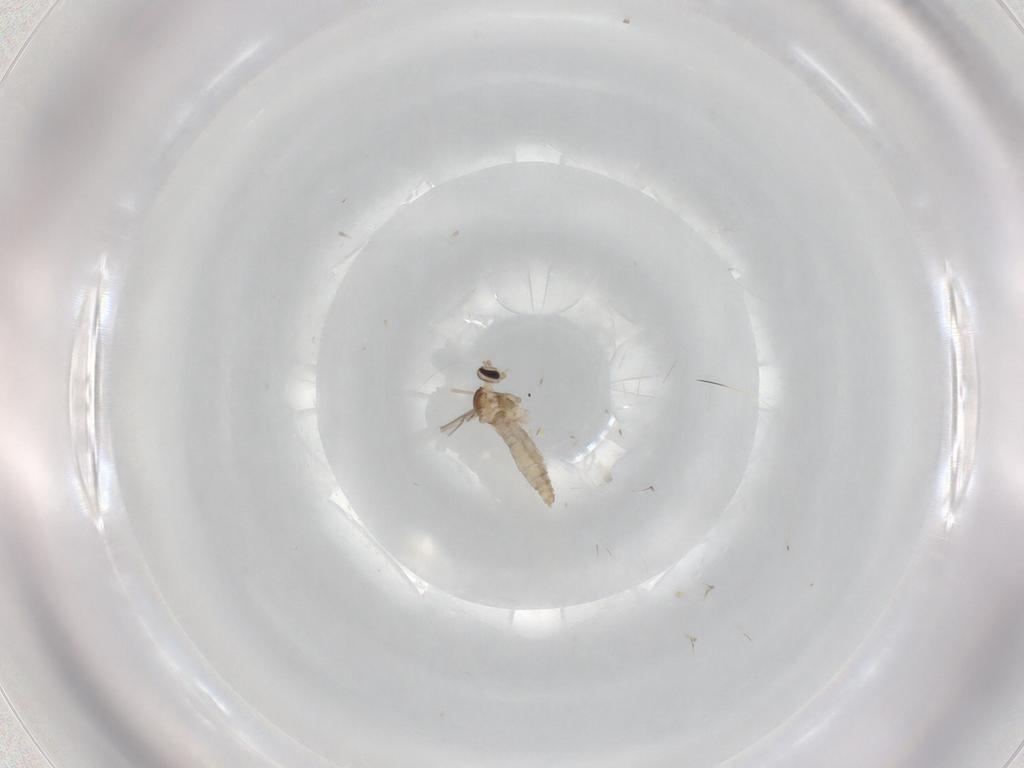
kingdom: Animalia
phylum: Arthropoda
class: Insecta
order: Diptera
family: Cecidomyiidae
